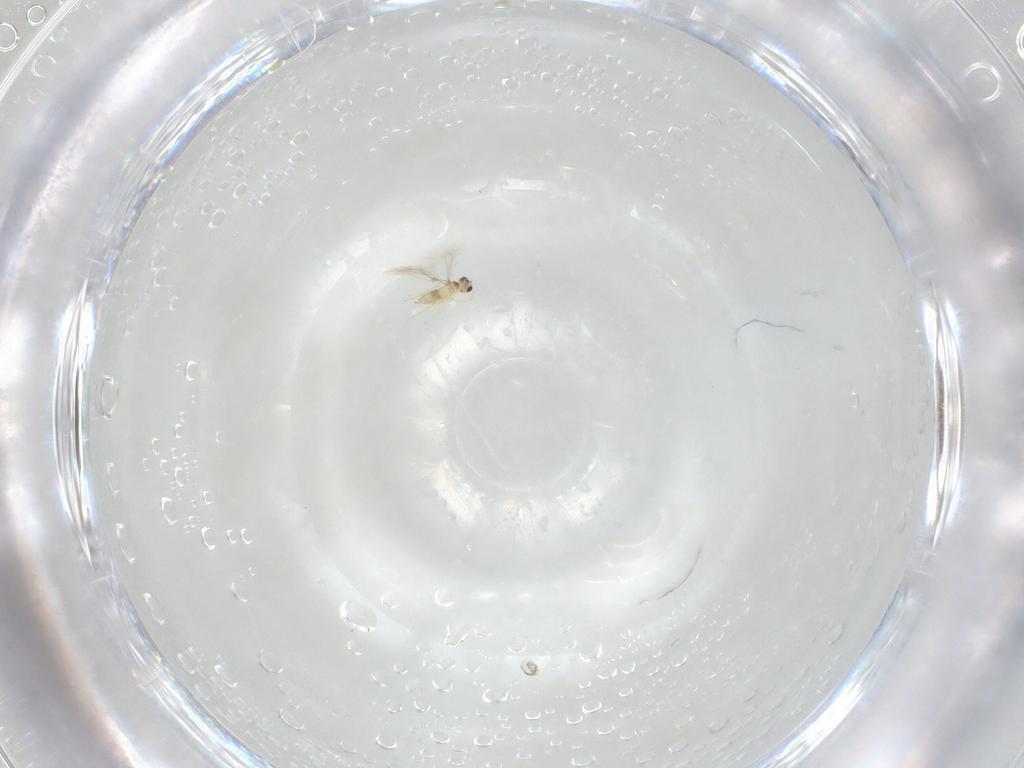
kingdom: Animalia
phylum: Arthropoda
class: Insecta
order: Hymenoptera
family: Mymaridae
